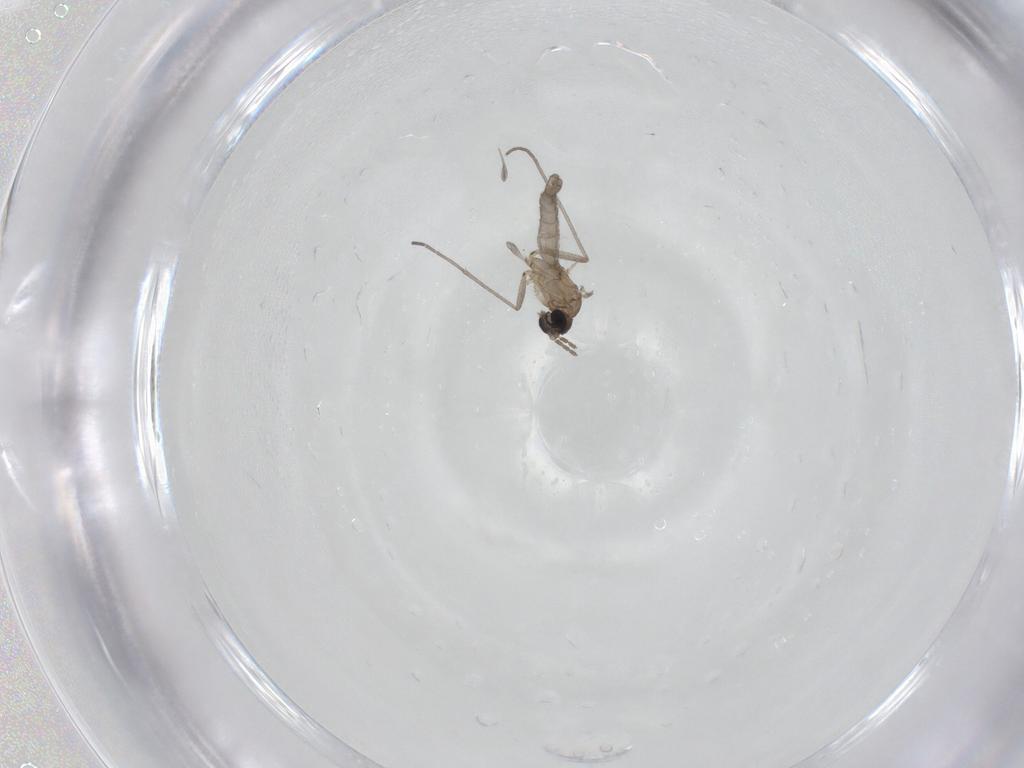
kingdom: Animalia
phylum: Arthropoda
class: Insecta
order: Diptera
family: Sciaridae
